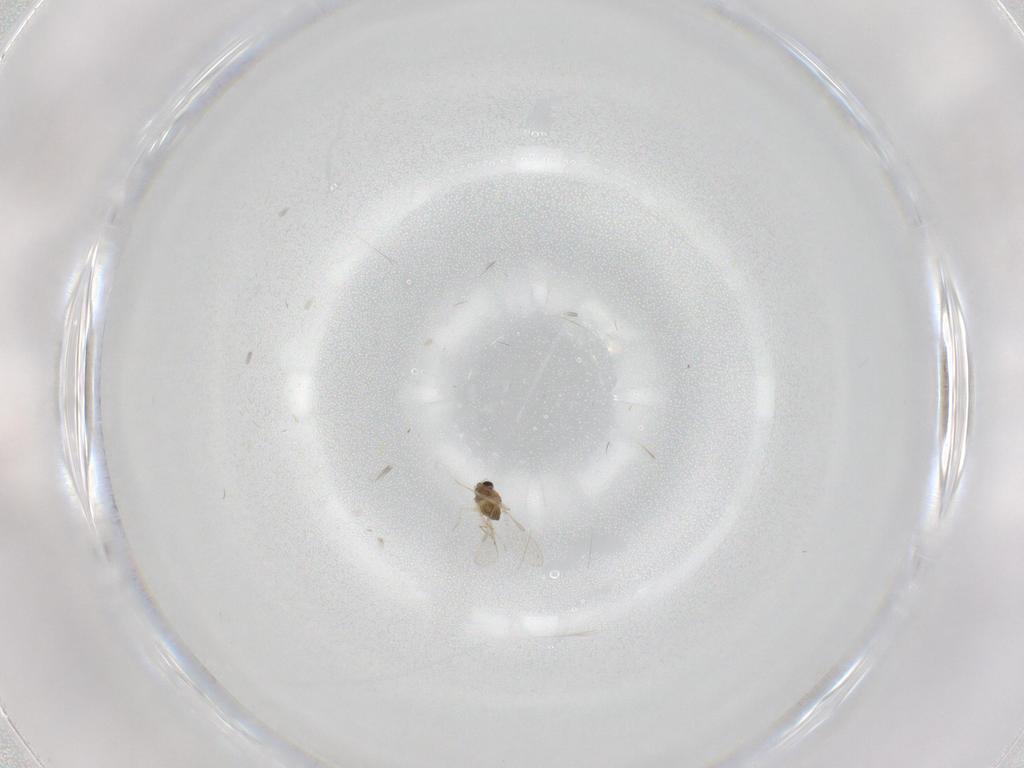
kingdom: Animalia
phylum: Arthropoda
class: Insecta
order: Diptera
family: Chironomidae
